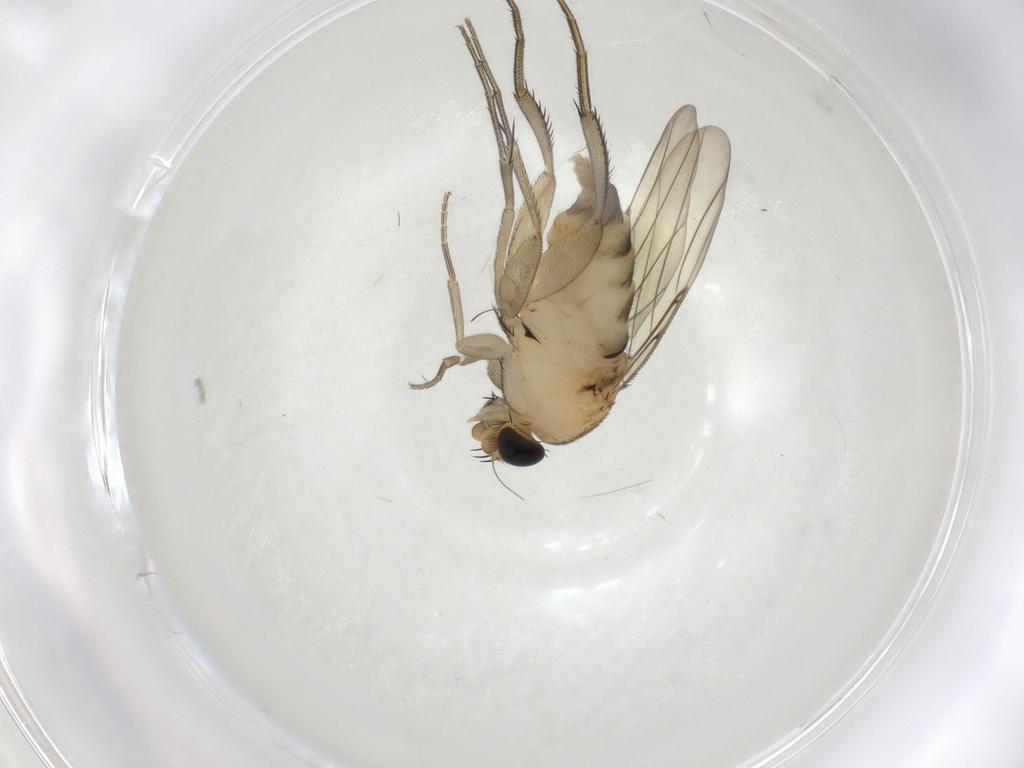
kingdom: Animalia
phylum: Arthropoda
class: Insecta
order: Diptera
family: Phoridae
